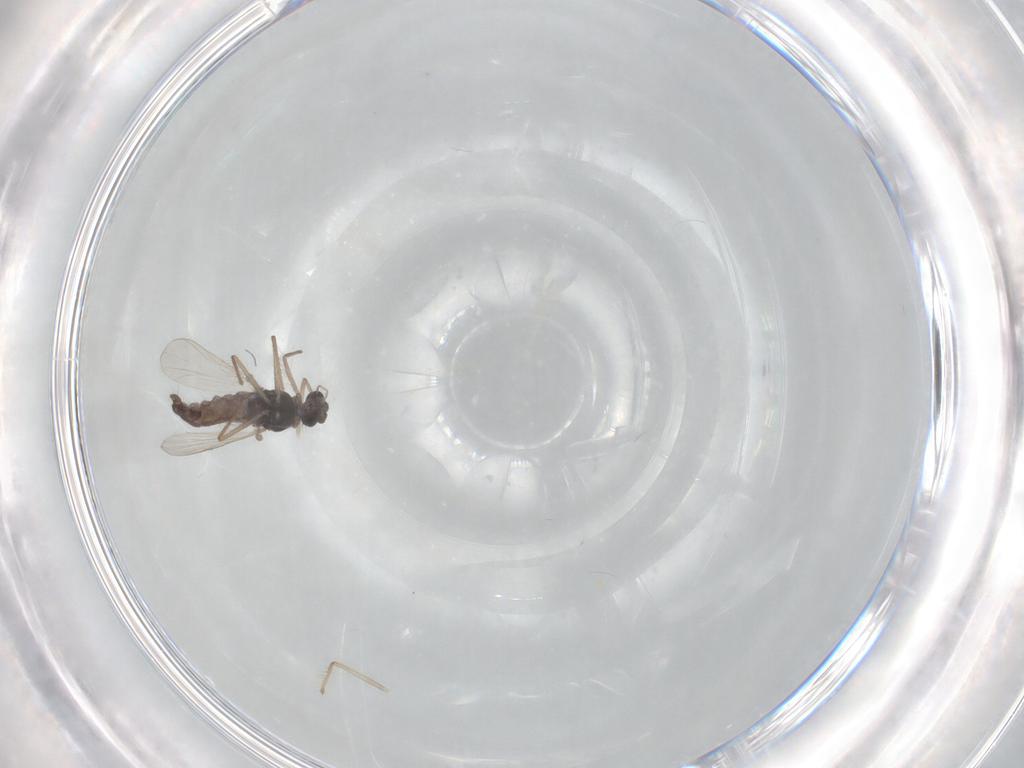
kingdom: Animalia
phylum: Arthropoda
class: Insecta
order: Diptera
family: Chironomidae
